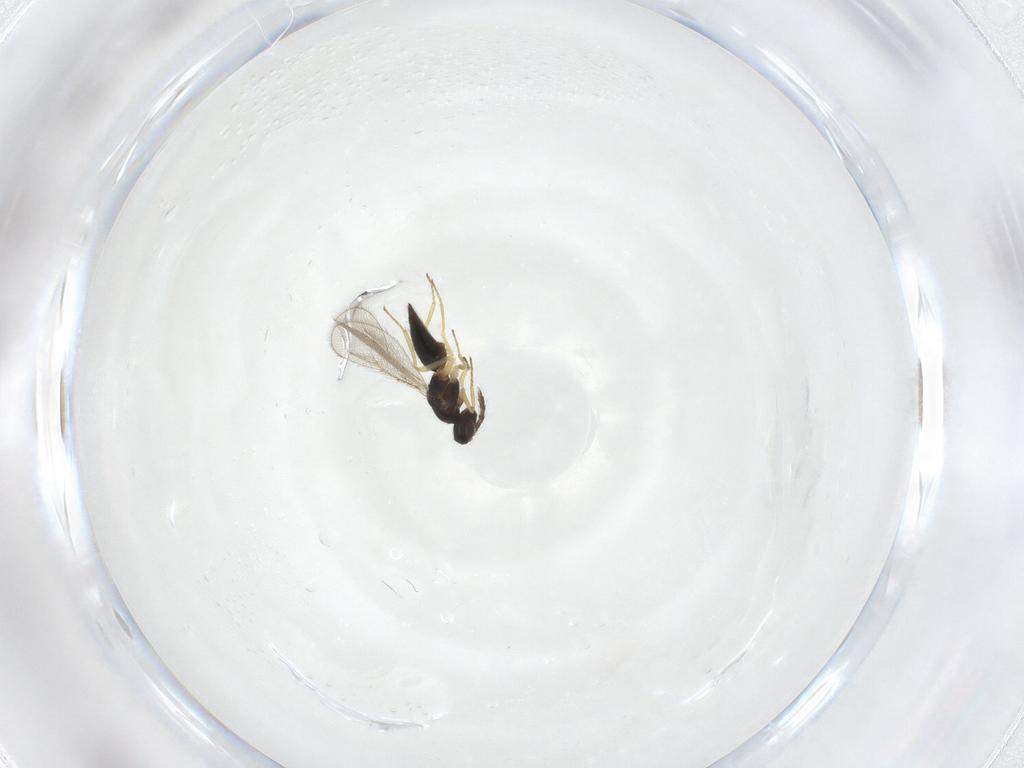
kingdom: Animalia
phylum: Arthropoda
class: Insecta
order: Hymenoptera
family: Eulophidae
